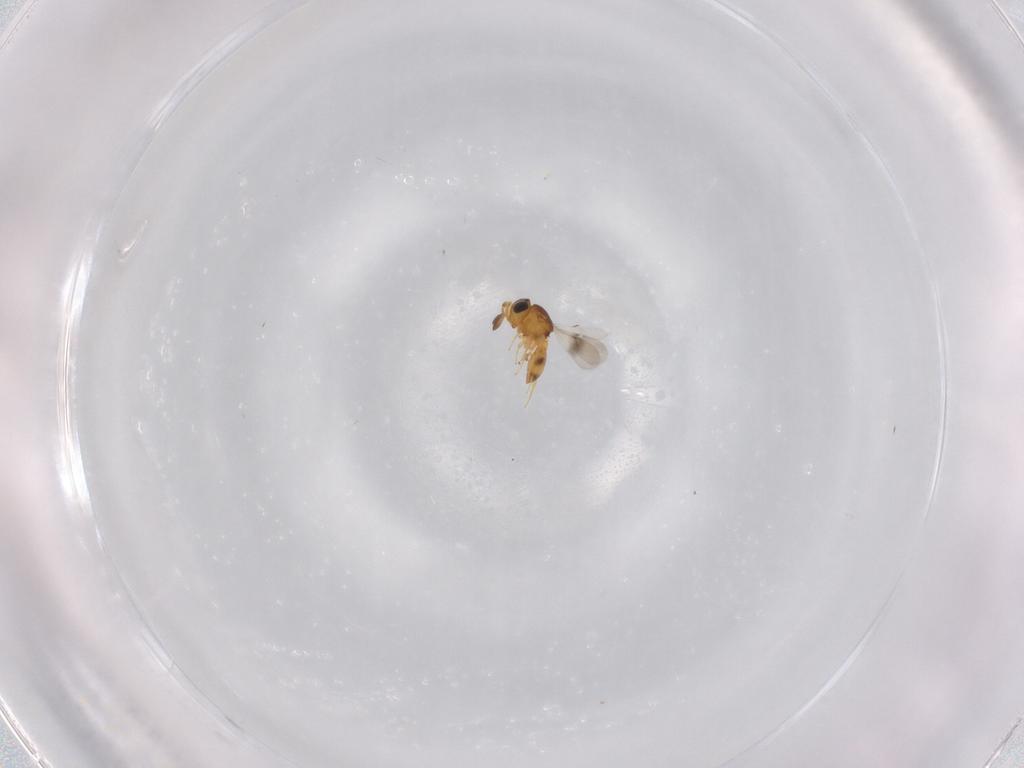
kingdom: Animalia
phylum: Arthropoda
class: Insecta
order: Hymenoptera
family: Scelionidae
